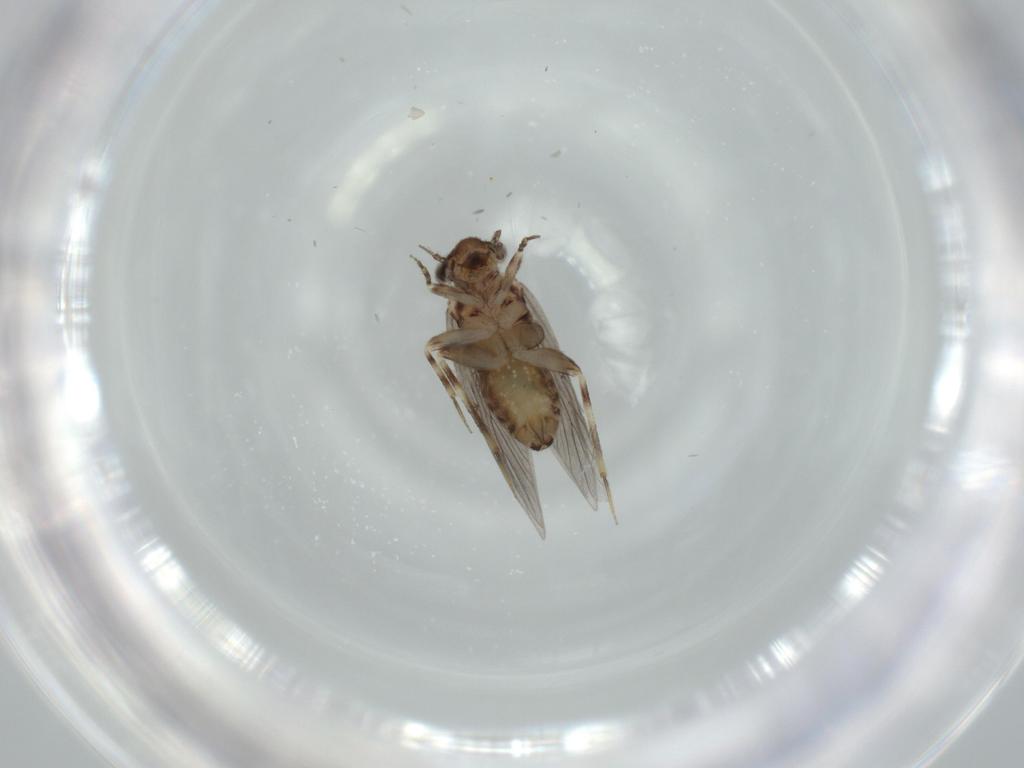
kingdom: Animalia
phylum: Arthropoda
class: Insecta
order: Psocodea
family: Lepidopsocidae
